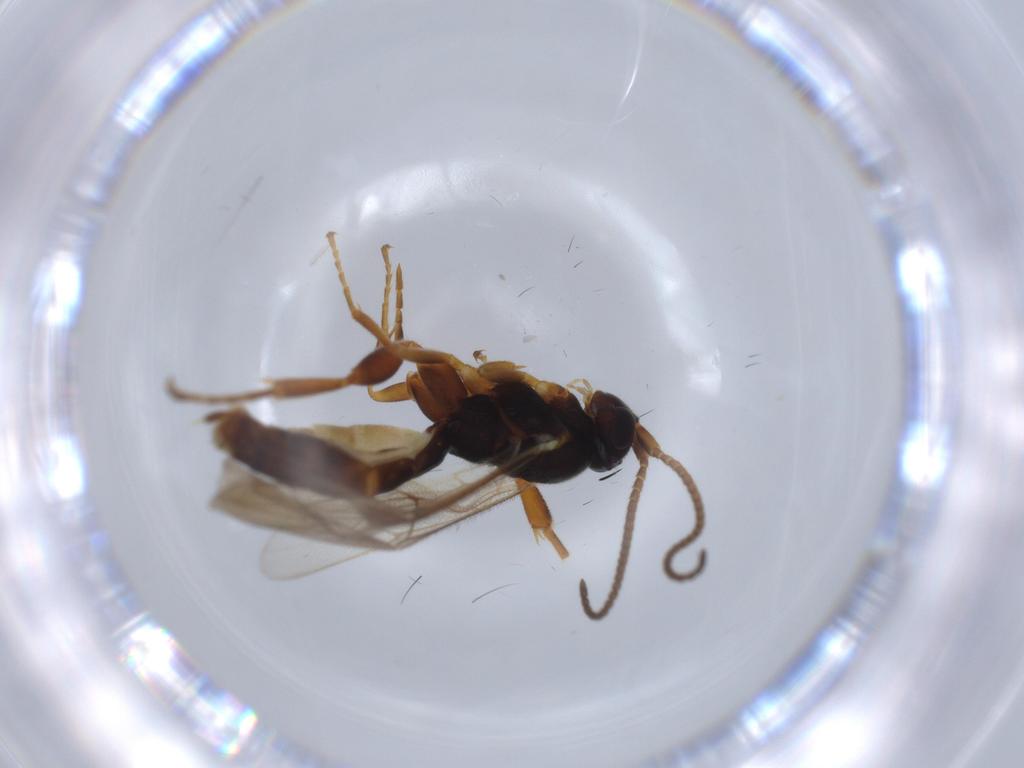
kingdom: Animalia
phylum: Arthropoda
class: Insecta
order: Hymenoptera
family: Ichneumonidae
